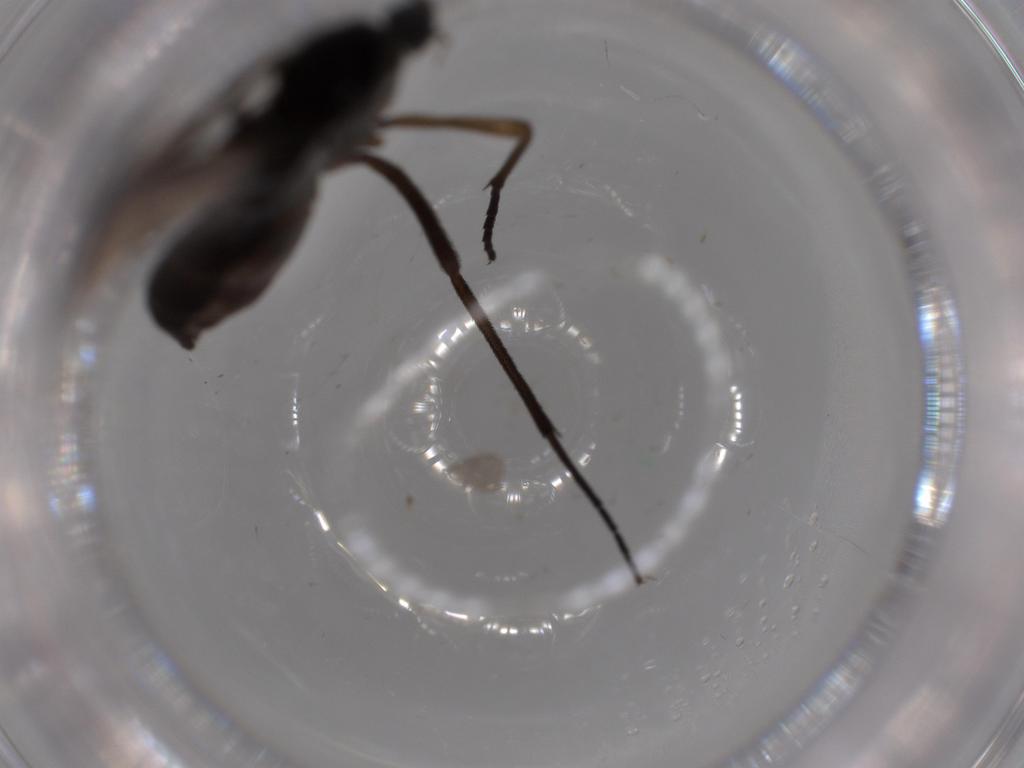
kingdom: Animalia
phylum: Arthropoda
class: Insecta
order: Diptera
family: Sciaridae
